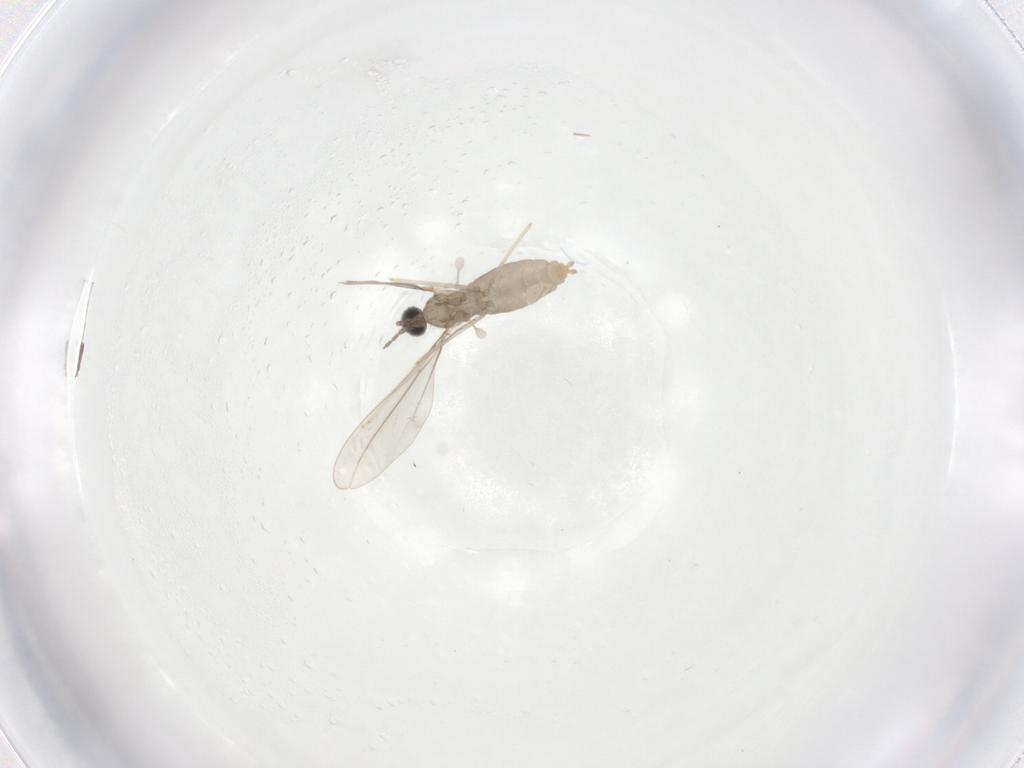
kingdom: Animalia
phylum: Arthropoda
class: Insecta
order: Diptera
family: Cecidomyiidae
